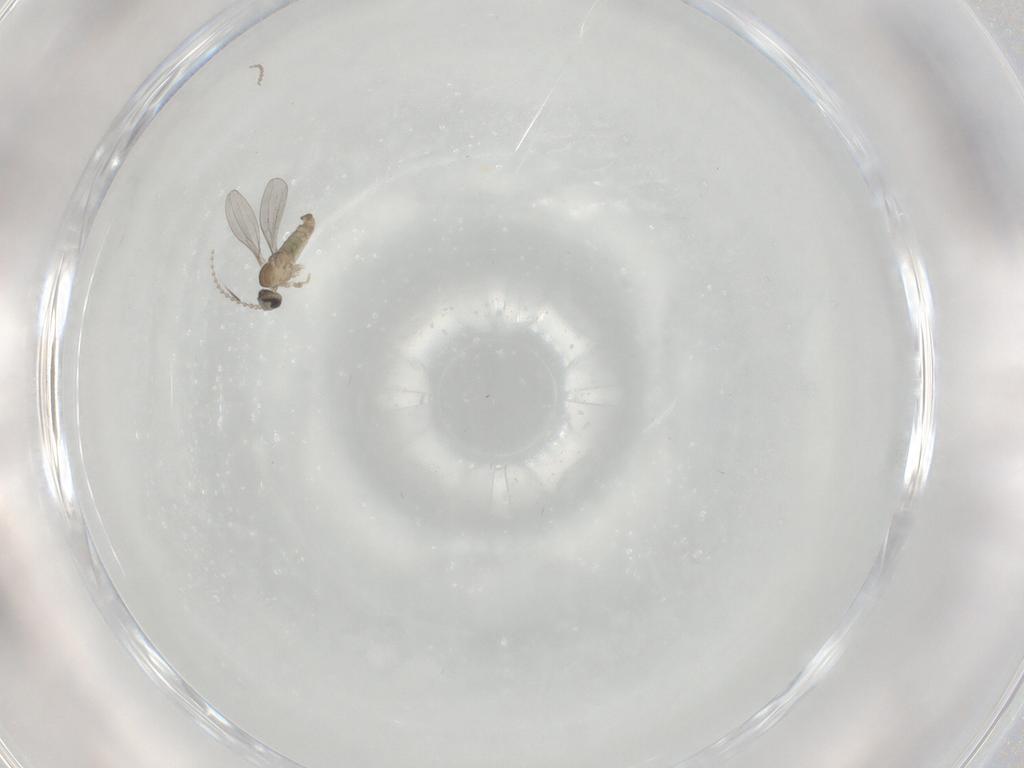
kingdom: Animalia
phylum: Arthropoda
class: Insecta
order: Diptera
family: Cecidomyiidae
